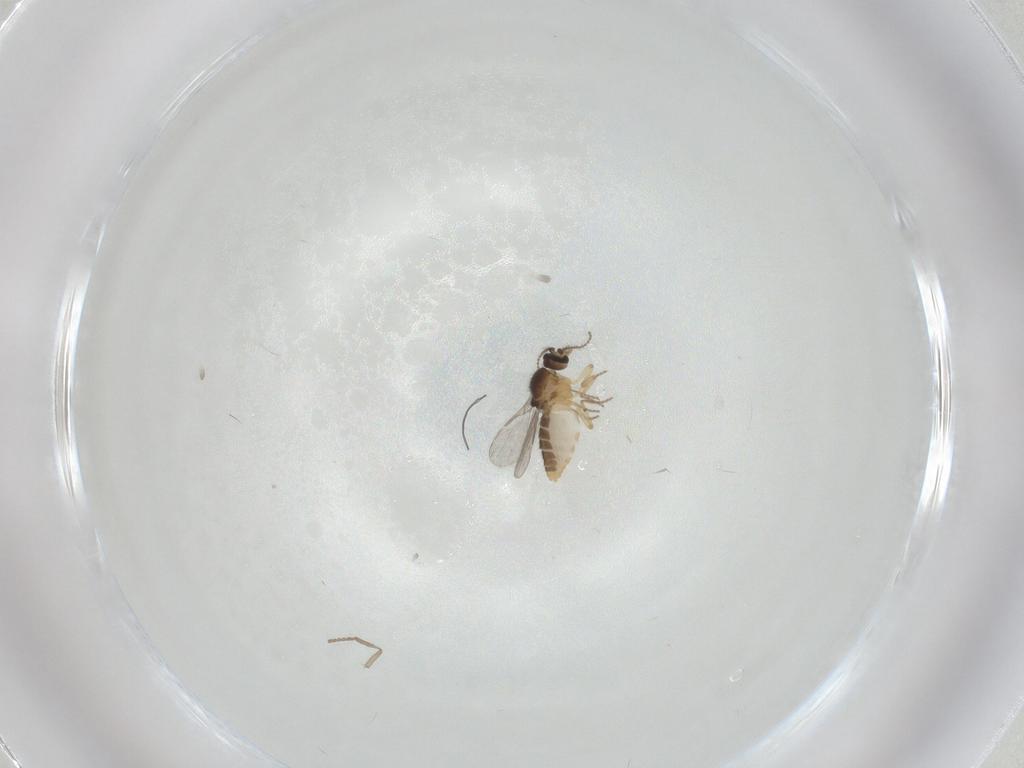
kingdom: Animalia
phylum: Arthropoda
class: Insecta
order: Diptera
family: Ceratopogonidae
